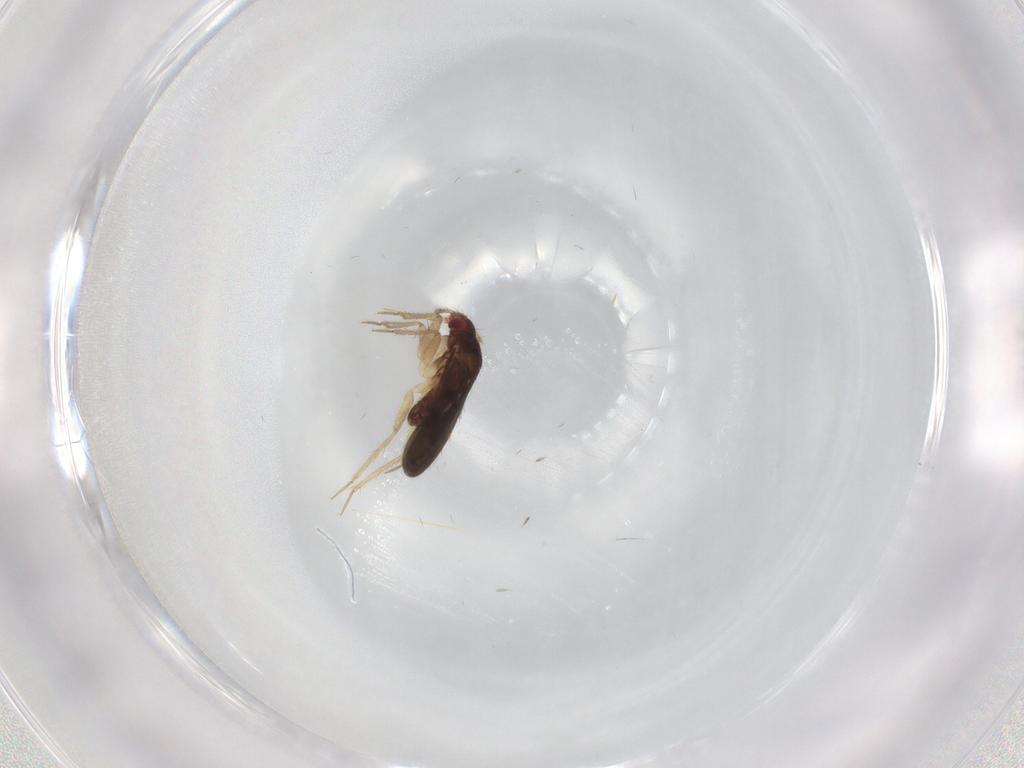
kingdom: Animalia
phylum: Arthropoda
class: Insecta
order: Hemiptera
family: Ceratocombidae
